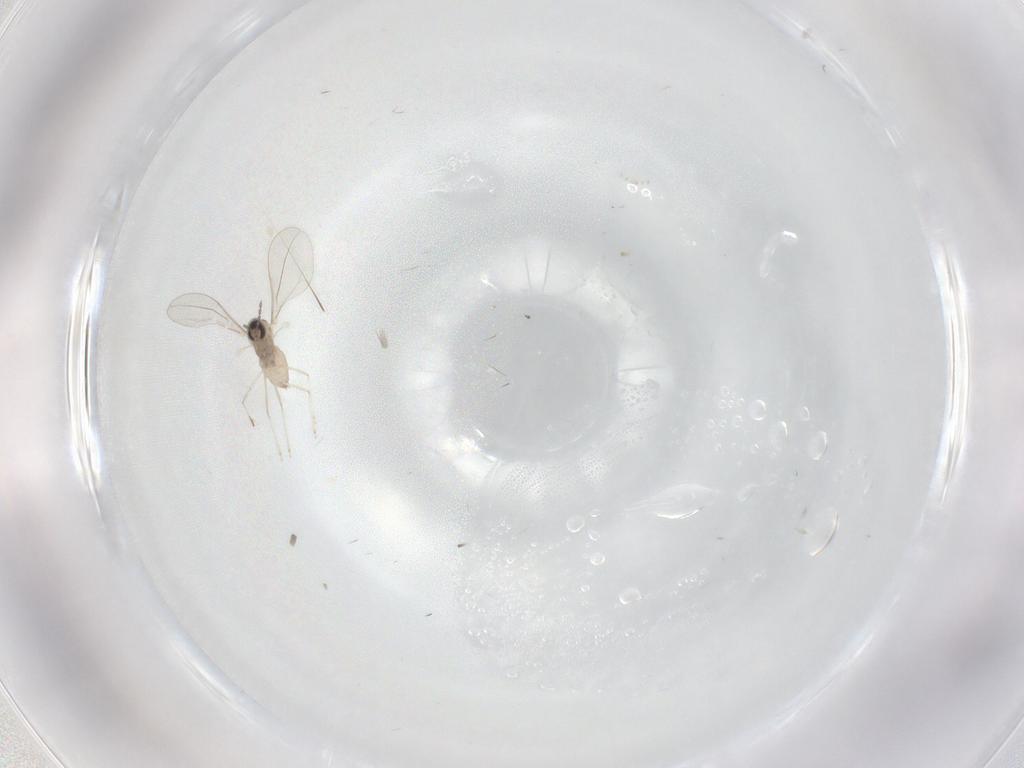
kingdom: Animalia
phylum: Arthropoda
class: Insecta
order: Diptera
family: Cecidomyiidae
